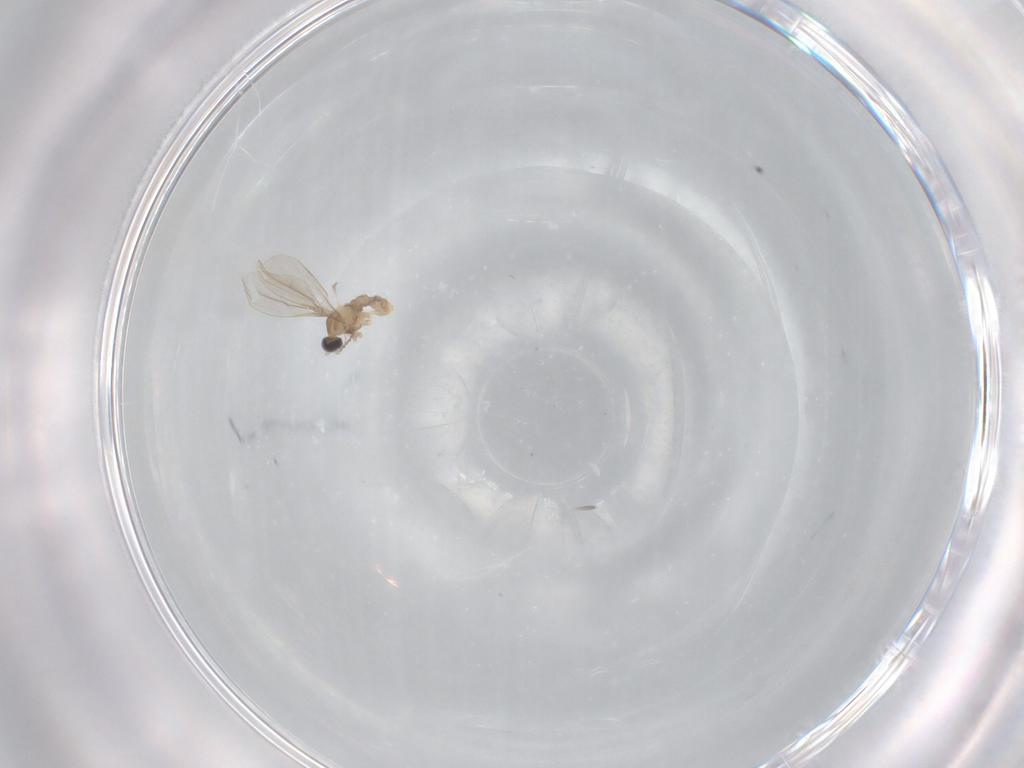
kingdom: Animalia
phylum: Arthropoda
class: Insecta
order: Diptera
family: Cecidomyiidae
